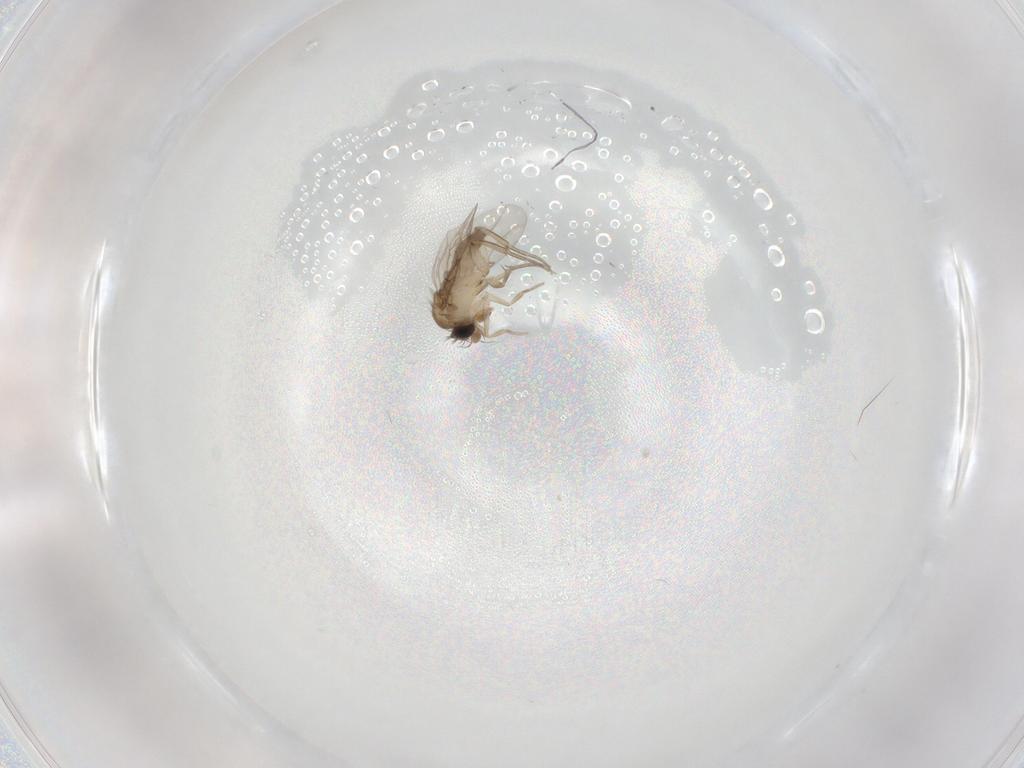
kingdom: Animalia
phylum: Arthropoda
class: Insecta
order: Diptera
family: Phoridae
